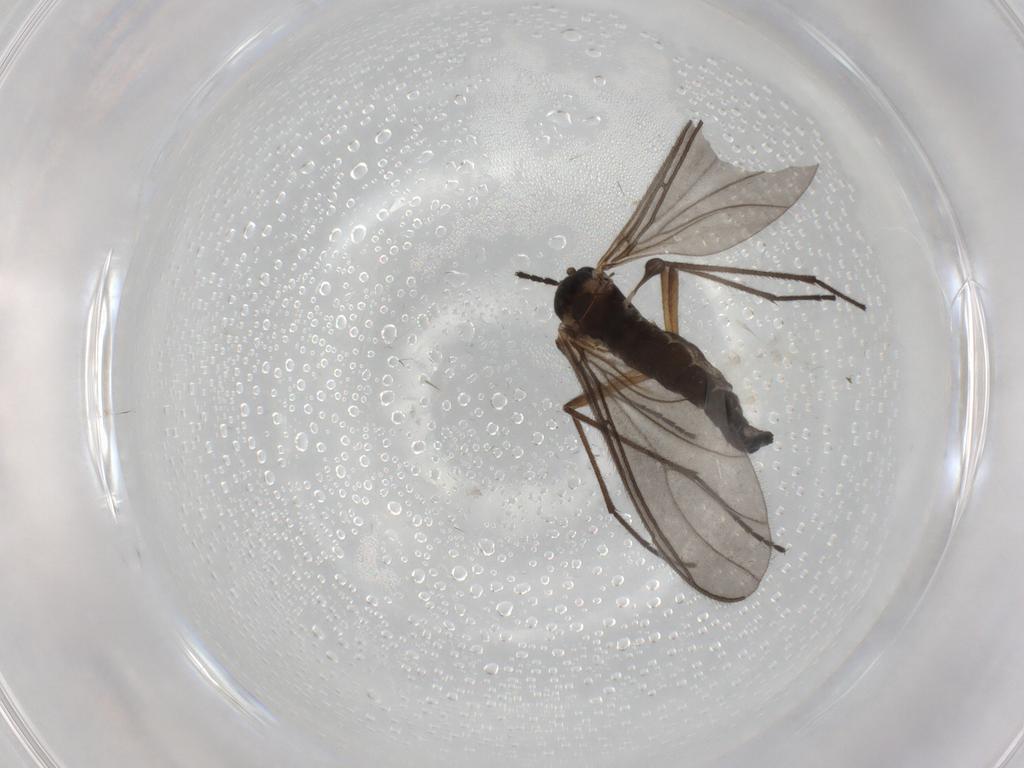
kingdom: Animalia
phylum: Arthropoda
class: Insecta
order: Diptera
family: Sciaridae
